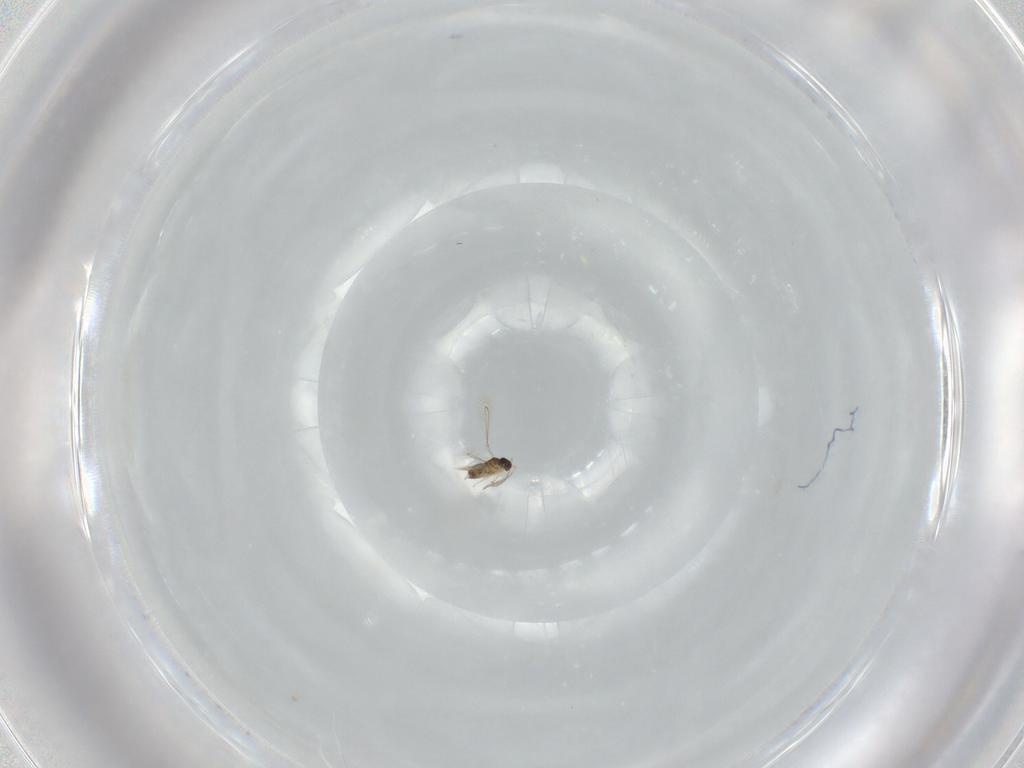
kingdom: Animalia
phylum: Arthropoda
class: Insecta
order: Hymenoptera
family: Mymaridae
